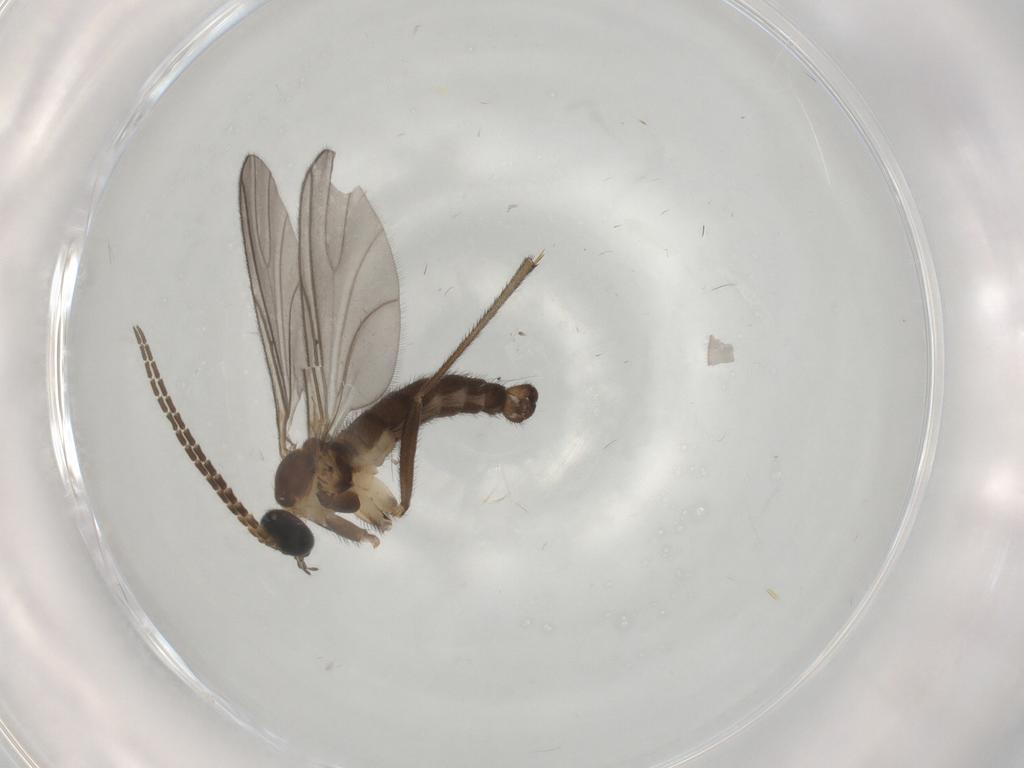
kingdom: Animalia
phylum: Arthropoda
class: Insecta
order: Diptera
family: Sciaridae
